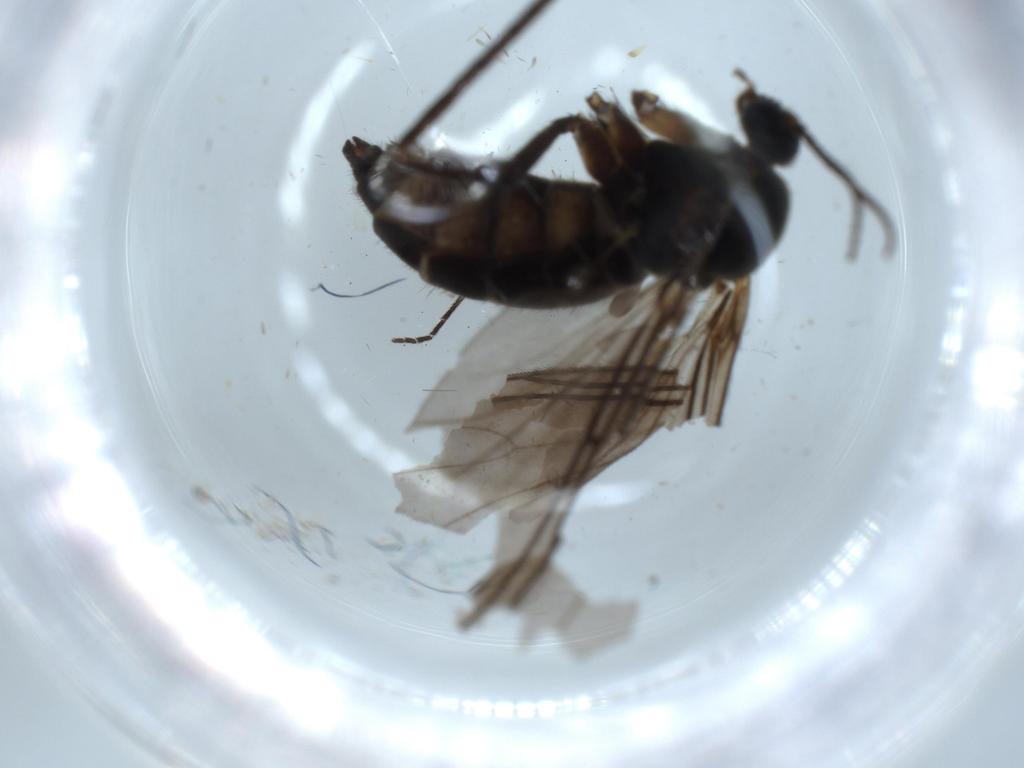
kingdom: Animalia
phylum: Arthropoda
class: Insecta
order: Diptera
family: Sciaridae
